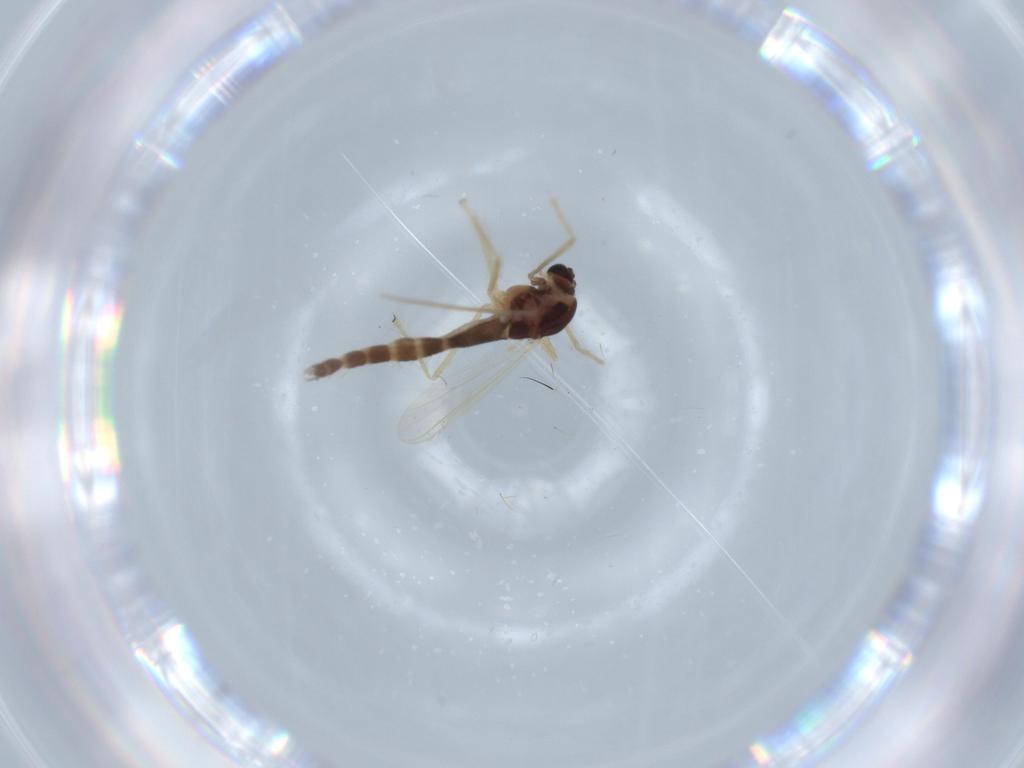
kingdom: Animalia
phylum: Arthropoda
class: Insecta
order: Diptera
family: Chironomidae
